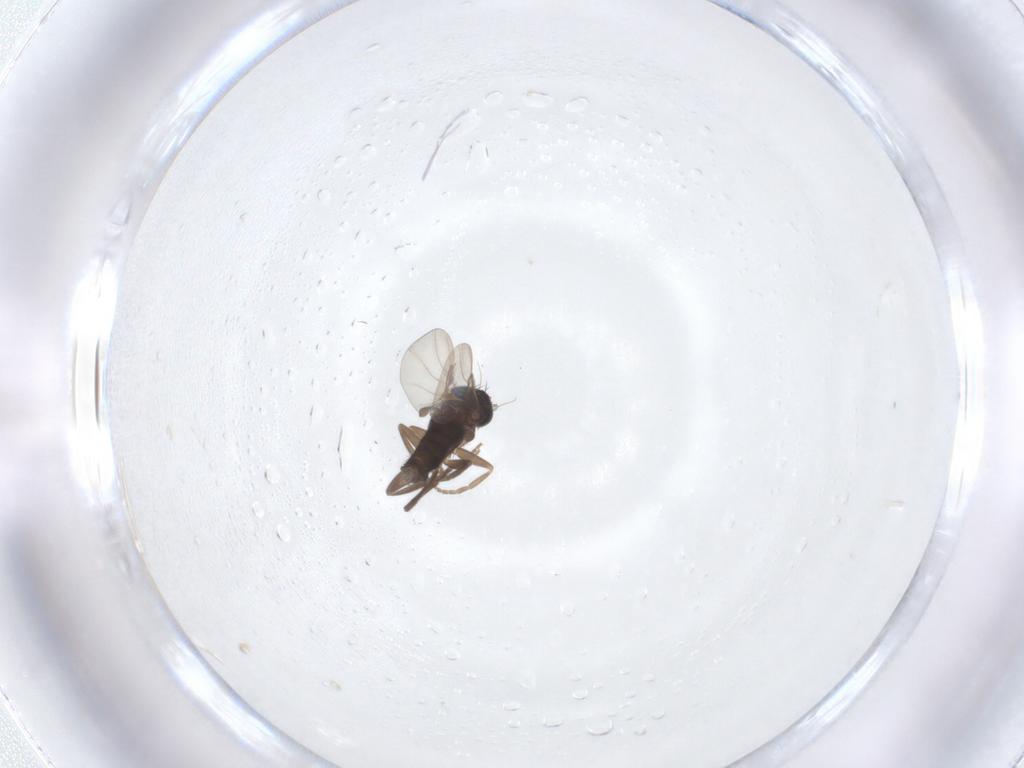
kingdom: Animalia
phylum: Arthropoda
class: Insecta
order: Diptera
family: Phoridae
